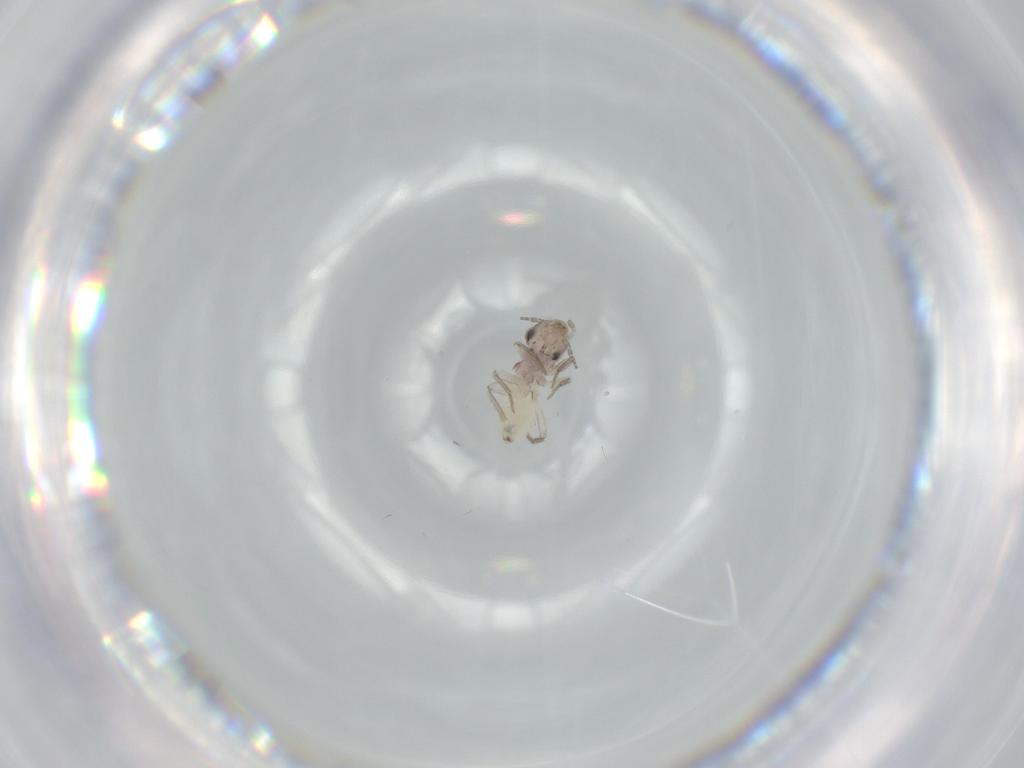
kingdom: Animalia
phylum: Arthropoda
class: Insecta
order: Psocodea
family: Lepidopsocidae
